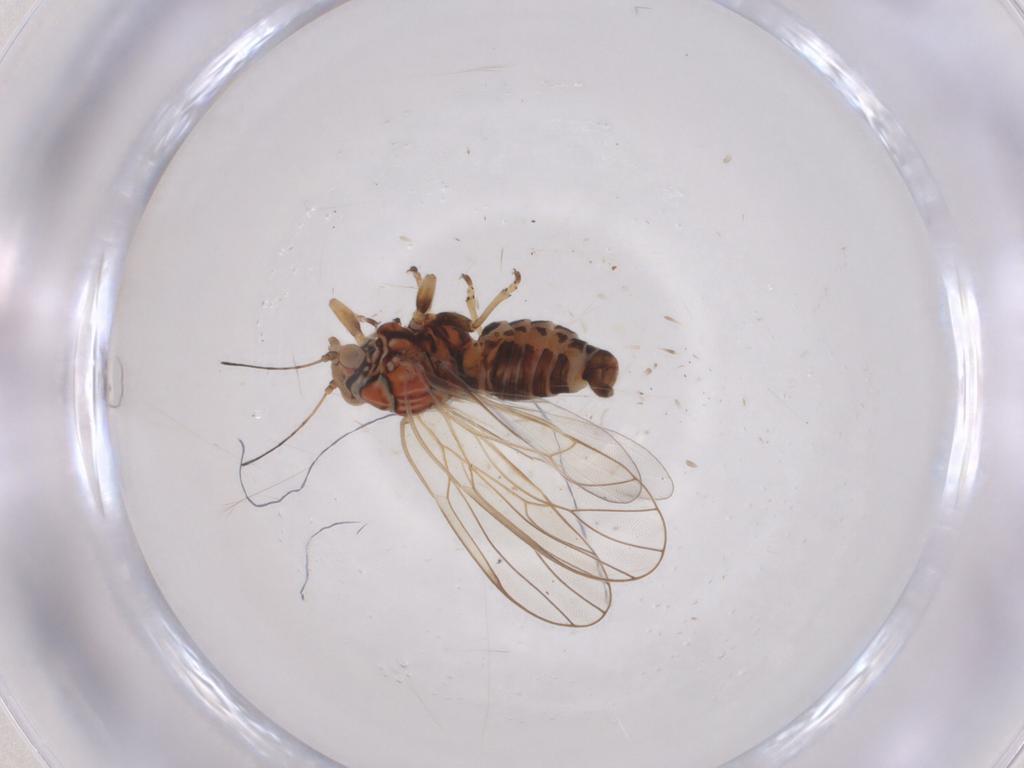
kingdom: Animalia
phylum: Arthropoda
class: Insecta
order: Hemiptera
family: Psyllidae
